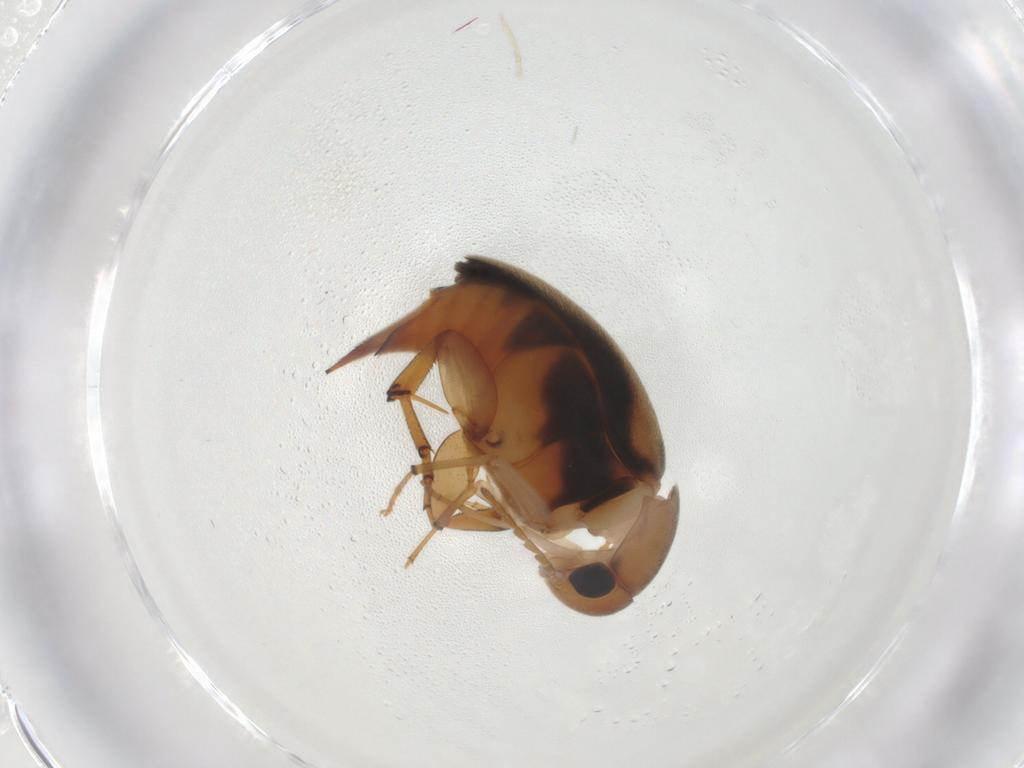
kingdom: Animalia
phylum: Arthropoda
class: Insecta
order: Coleoptera
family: Mordellidae
